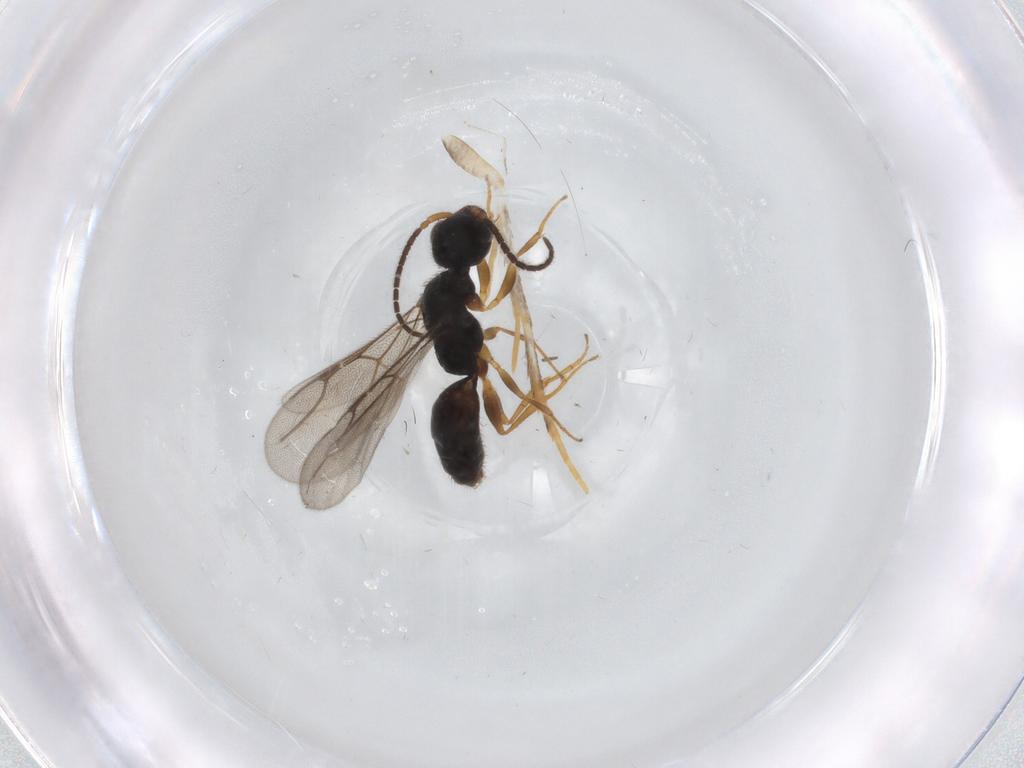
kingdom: Animalia
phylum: Arthropoda
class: Insecta
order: Hymenoptera
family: Bethylidae
